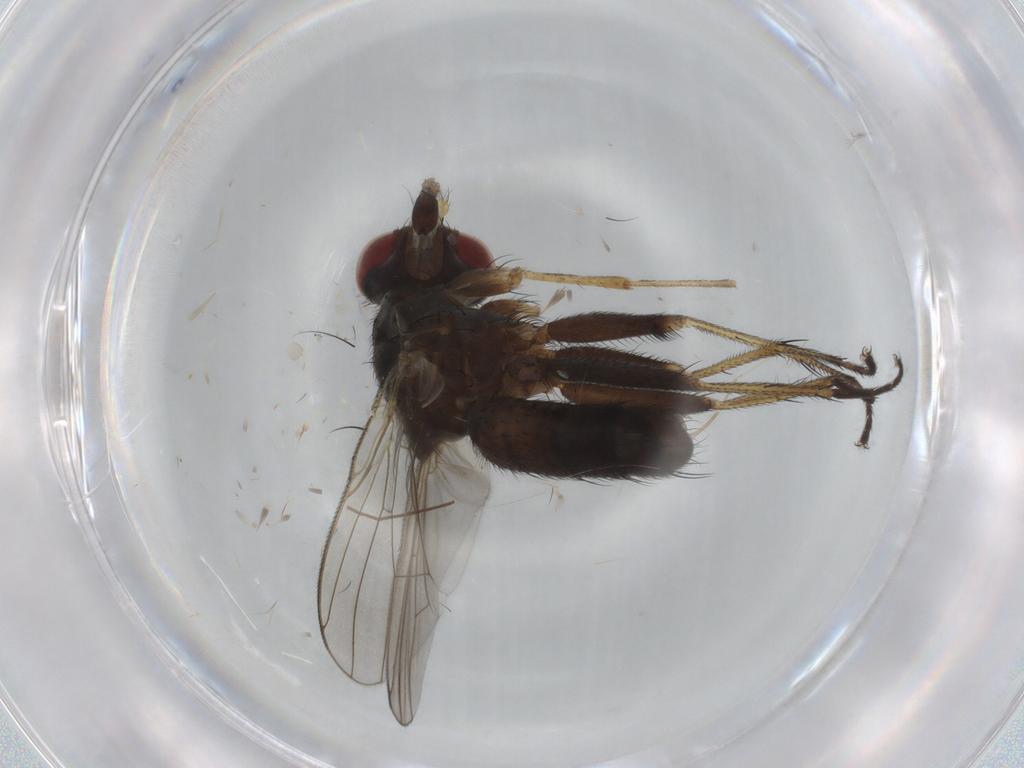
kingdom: Animalia
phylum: Arthropoda
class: Insecta
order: Diptera
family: Muscidae
